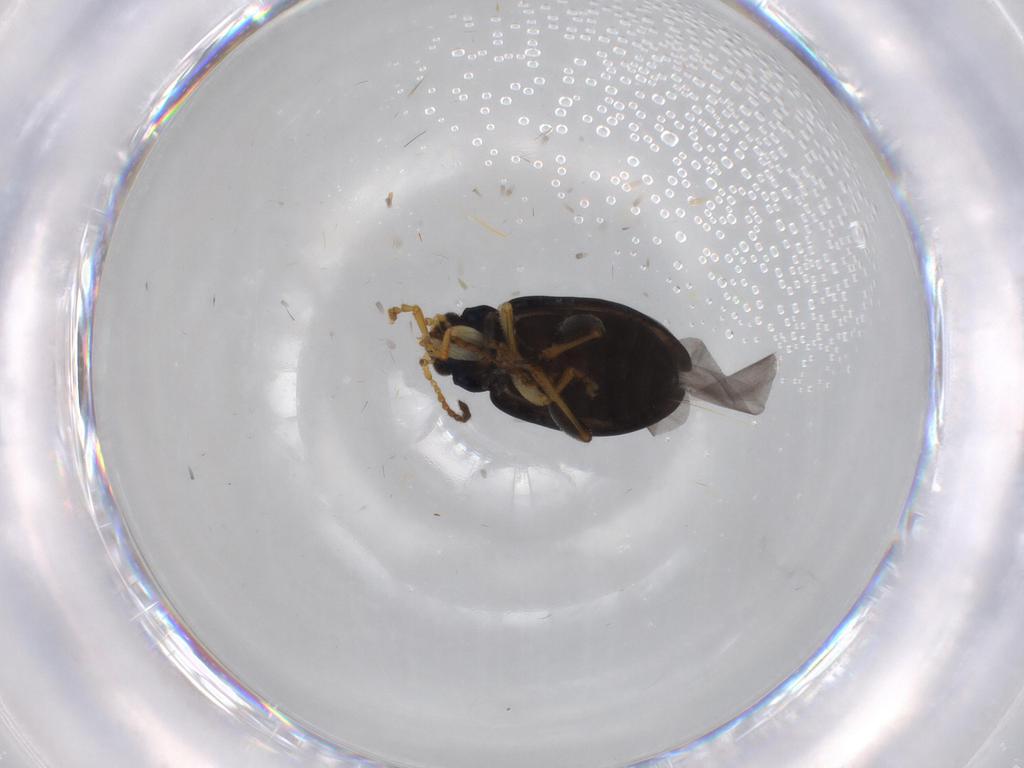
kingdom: Animalia
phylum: Arthropoda
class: Insecta
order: Coleoptera
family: Chrysomelidae
